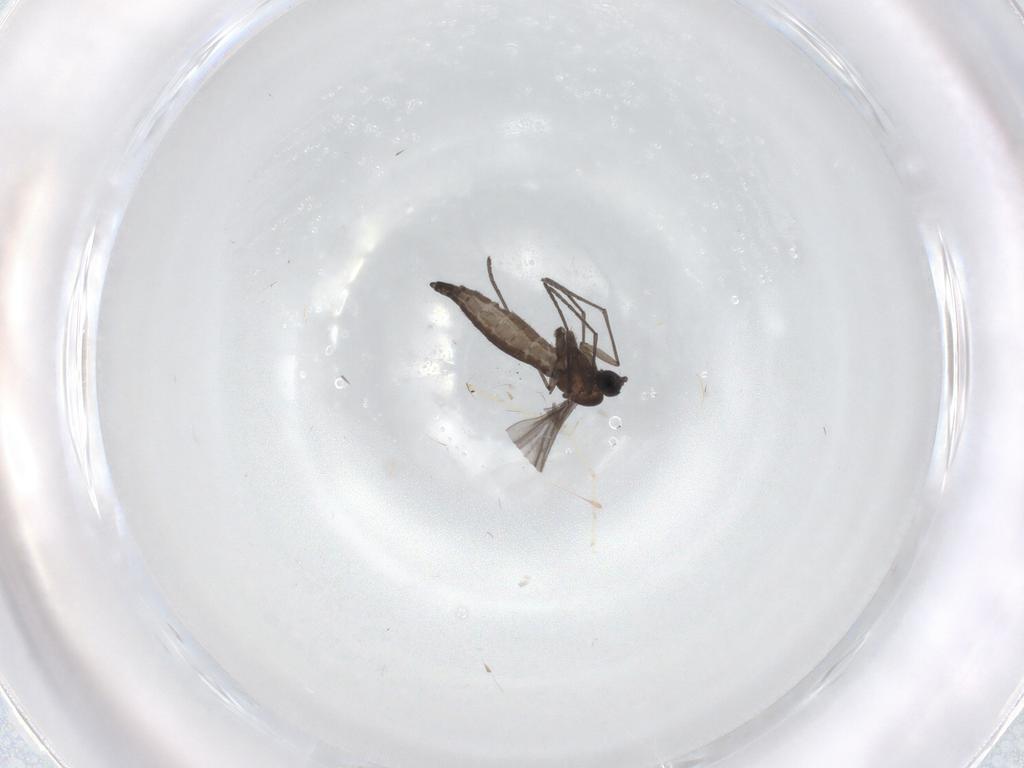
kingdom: Animalia
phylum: Arthropoda
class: Insecta
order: Diptera
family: Sciaridae
